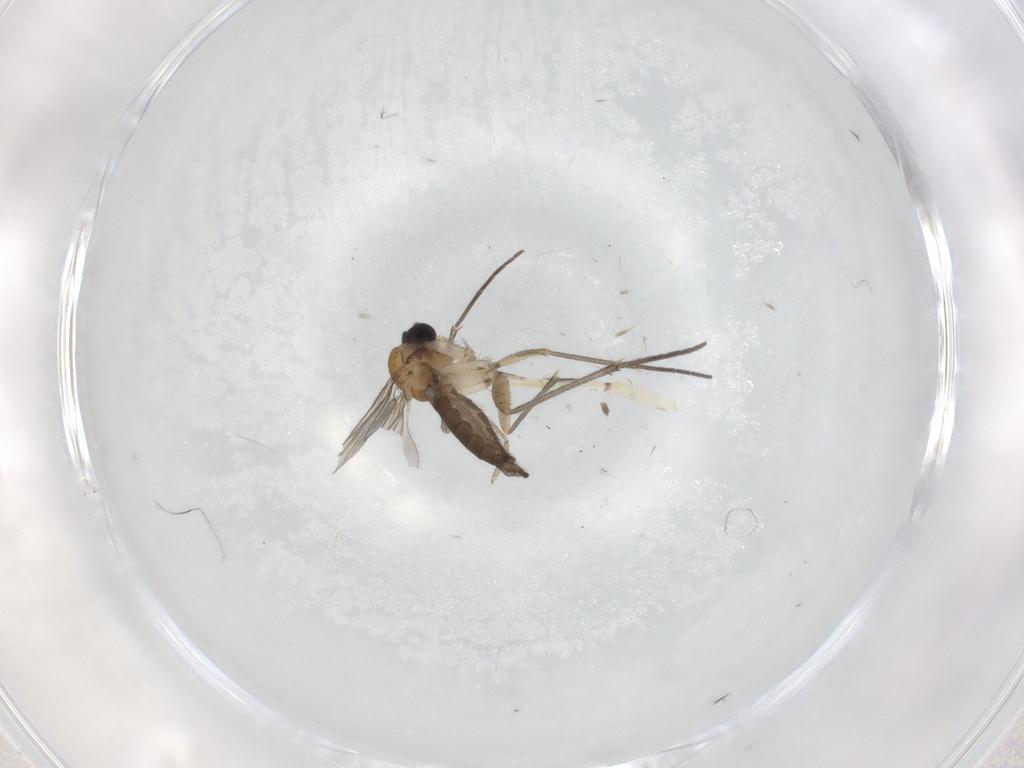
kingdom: Animalia
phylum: Arthropoda
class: Insecta
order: Diptera
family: Sciaridae
